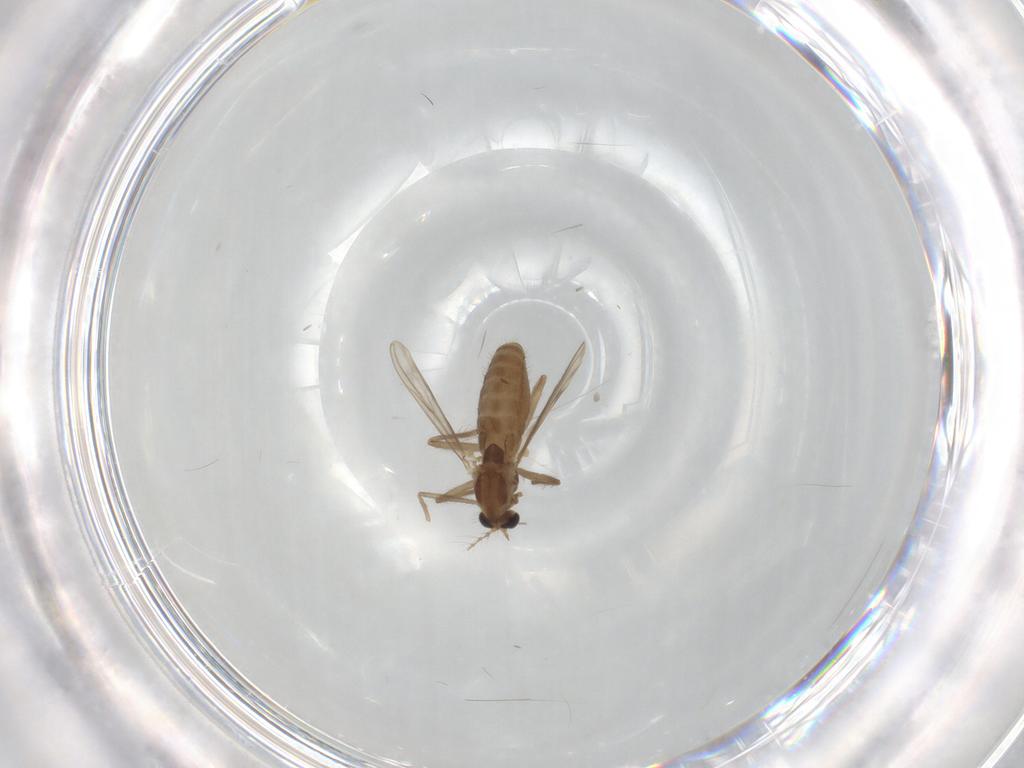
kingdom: Animalia
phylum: Arthropoda
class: Insecta
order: Diptera
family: Chironomidae
